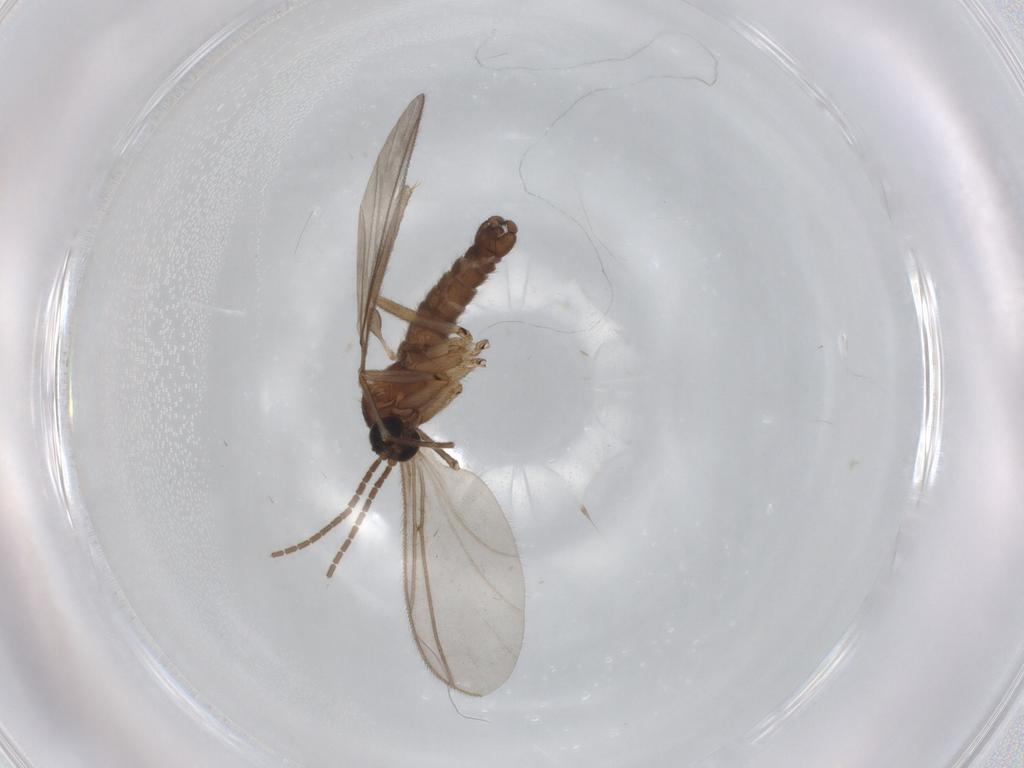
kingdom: Animalia
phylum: Arthropoda
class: Insecta
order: Diptera
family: Sciaridae
